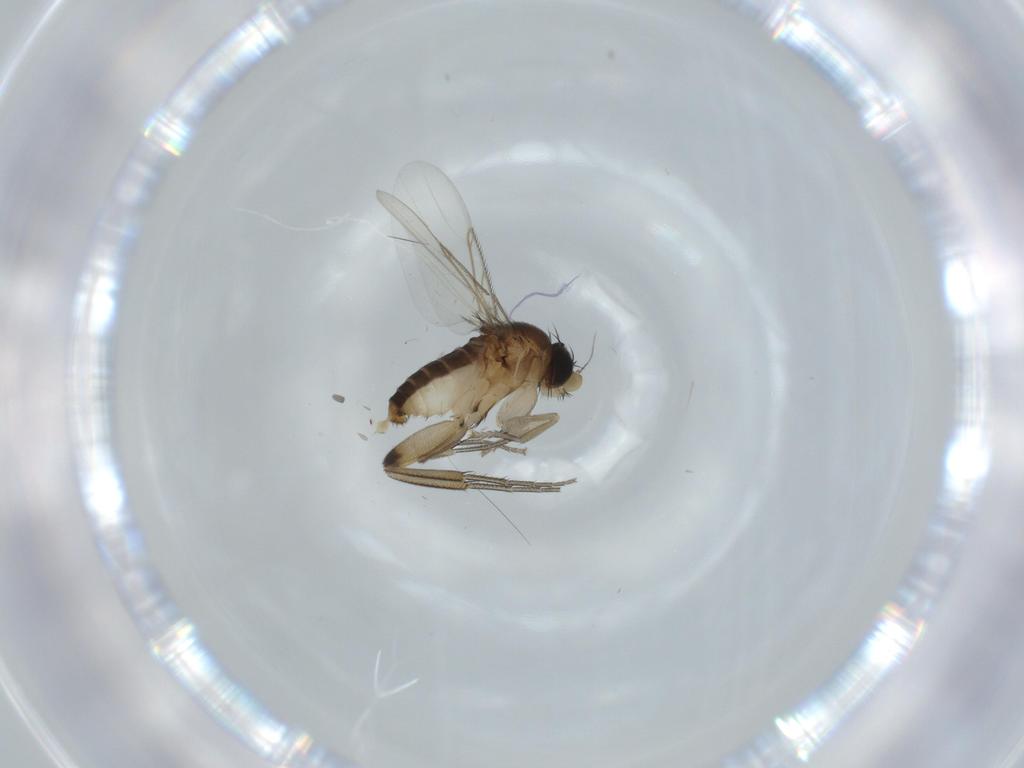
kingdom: Animalia
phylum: Arthropoda
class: Insecta
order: Diptera
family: Phoridae
